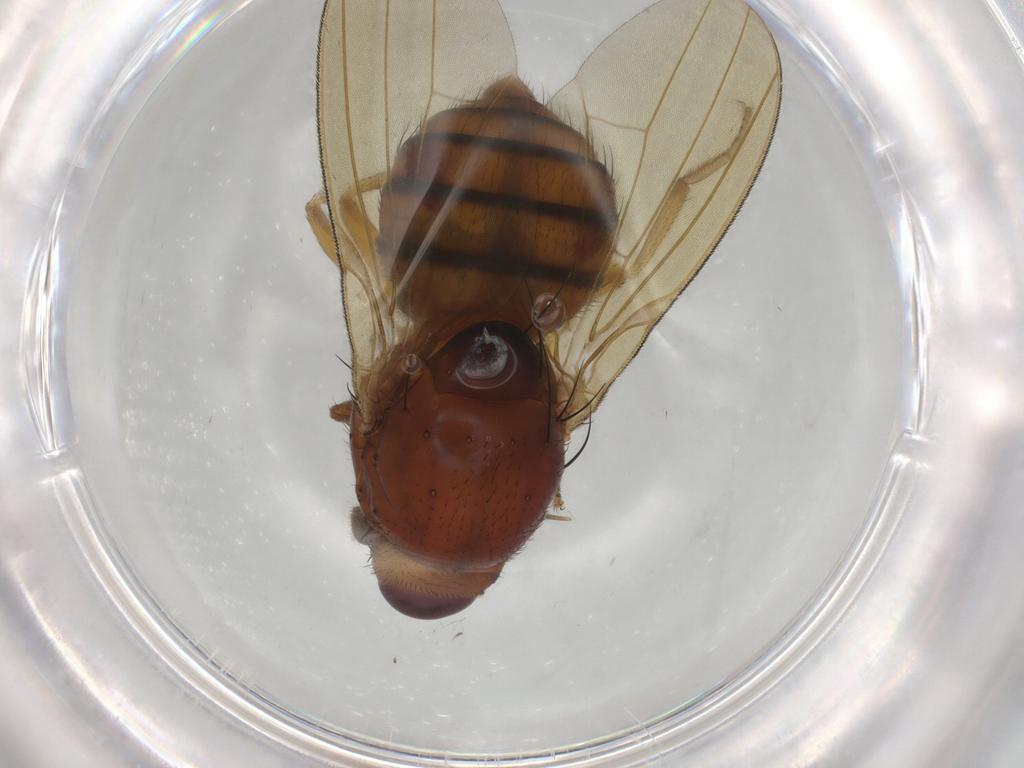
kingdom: Animalia
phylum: Arthropoda
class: Insecta
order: Diptera
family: Chironomidae
